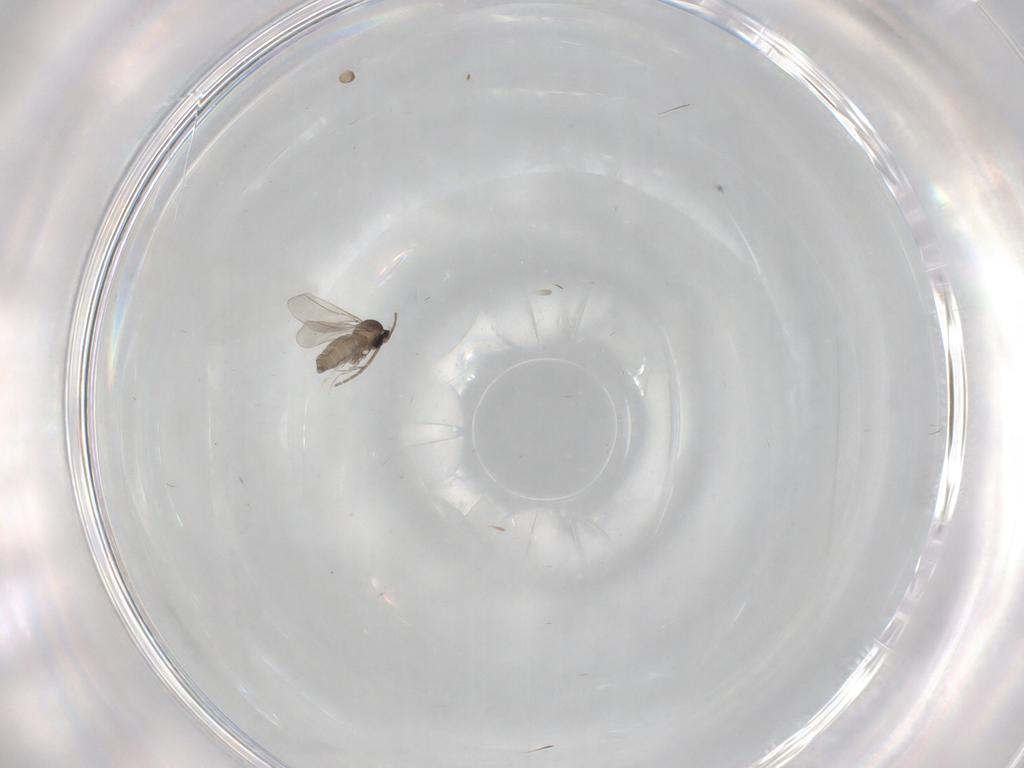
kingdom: Animalia
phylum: Arthropoda
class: Insecta
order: Diptera
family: Cecidomyiidae
